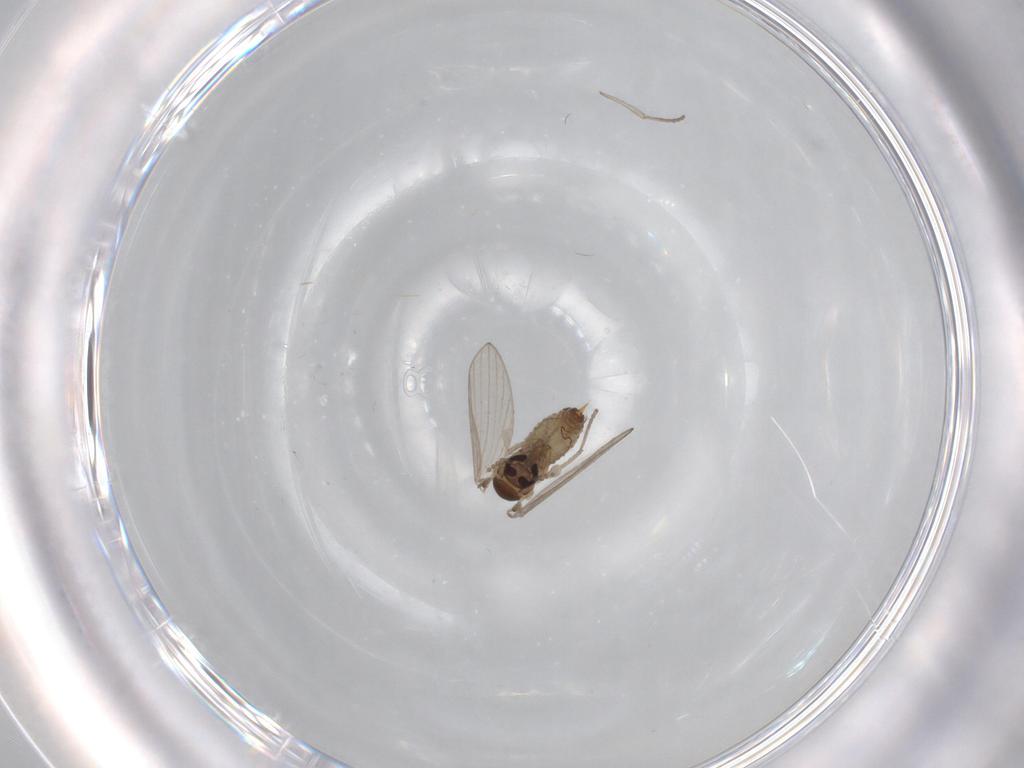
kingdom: Animalia
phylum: Arthropoda
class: Insecta
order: Diptera
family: Psychodidae
